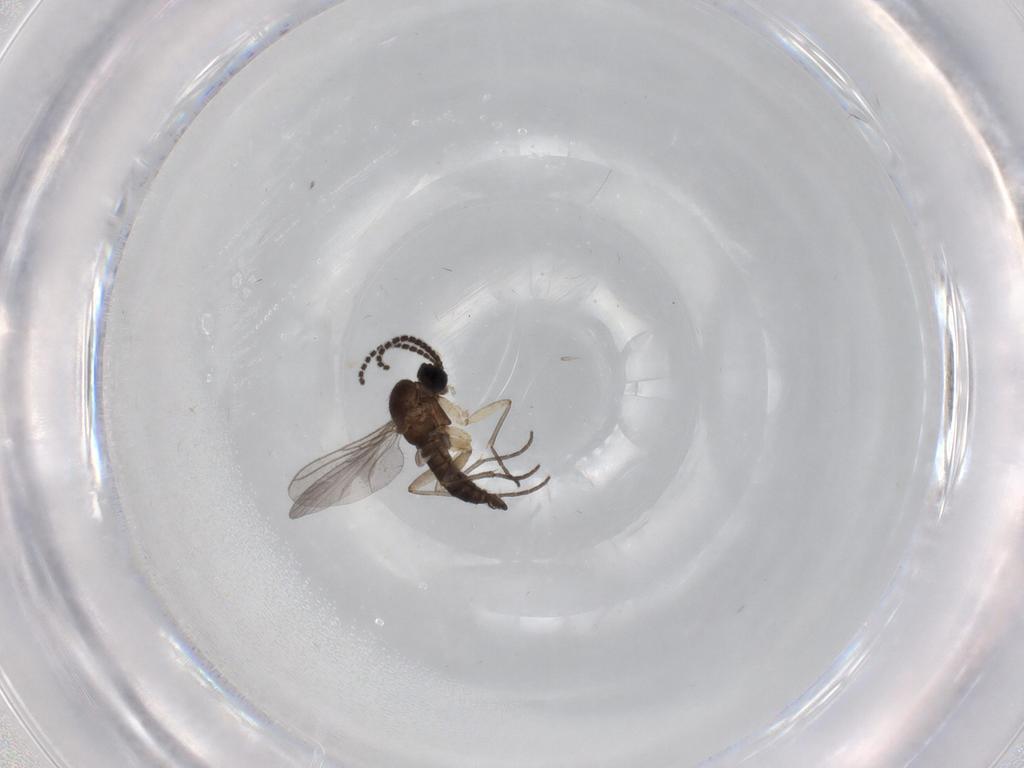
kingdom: Animalia
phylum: Arthropoda
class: Insecta
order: Diptera
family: Sciaridae
